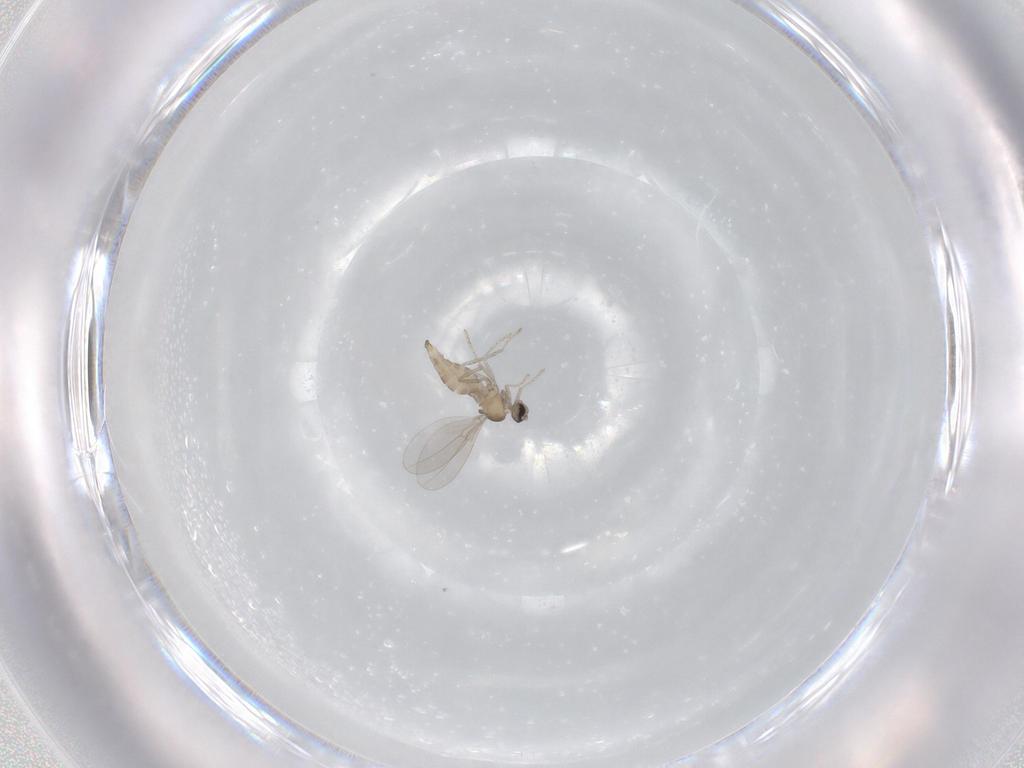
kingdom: Animalia
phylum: Arthropoda
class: Insecta
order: Diptera
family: Cecidomyiidae
